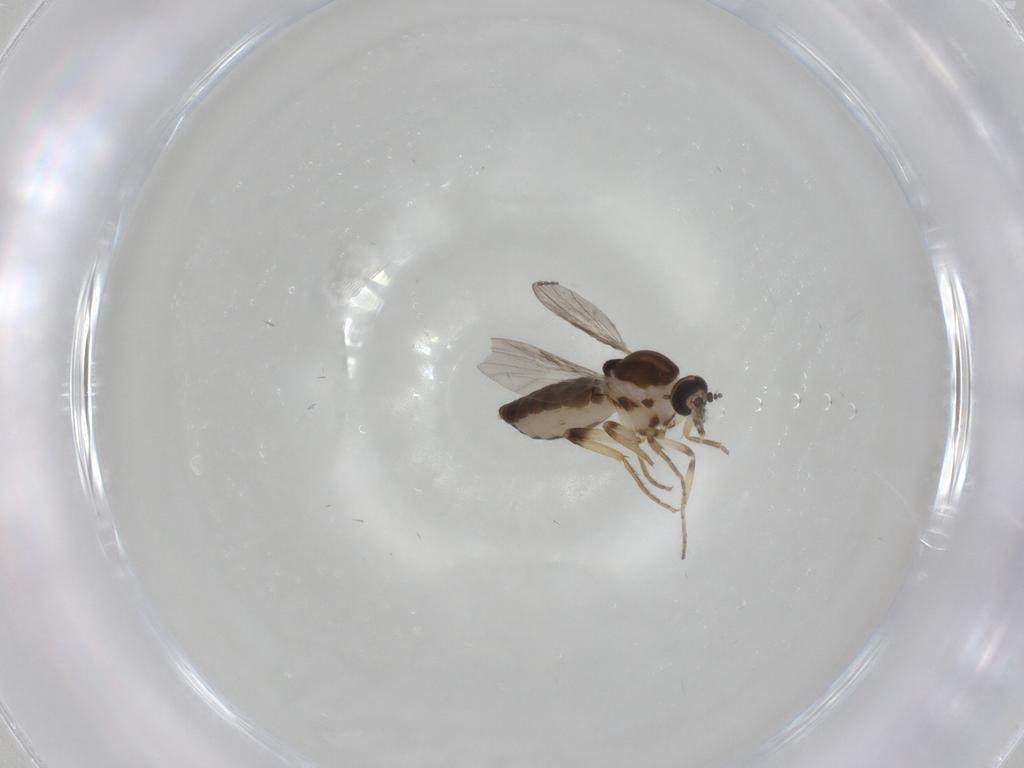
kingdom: Animalia
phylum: Arthropoda
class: Insecta
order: Diptera
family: Ceratopogonidae
